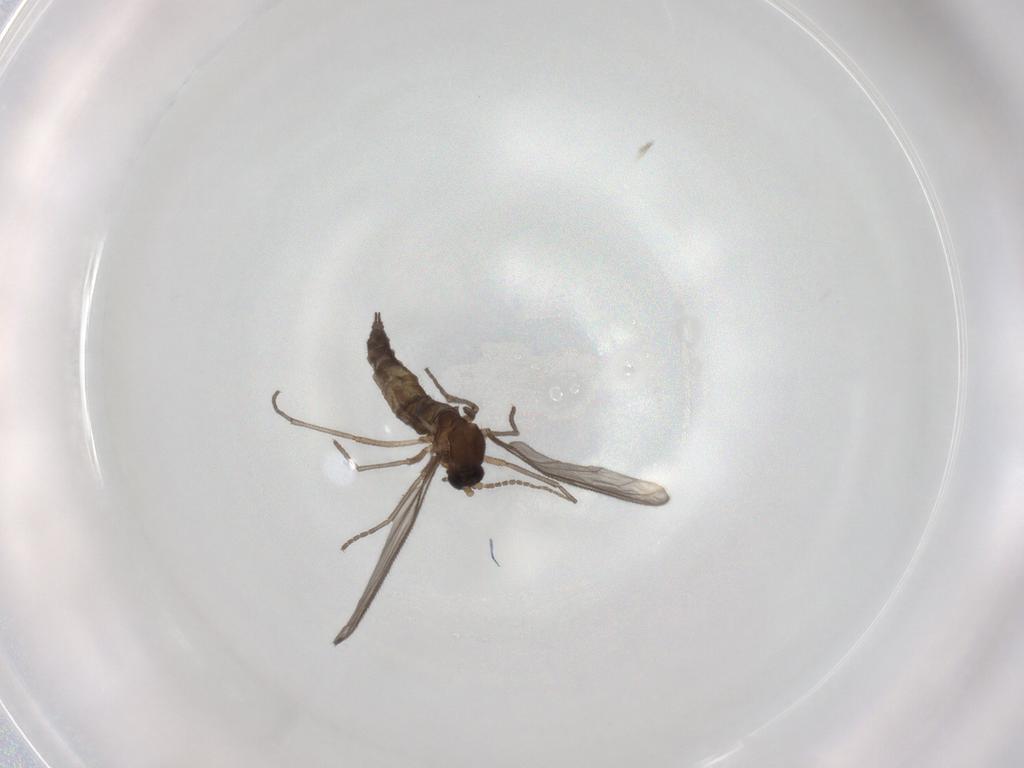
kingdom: Animalia
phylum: Arthropoda
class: Insecta
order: Diptera
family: Sciaridae
